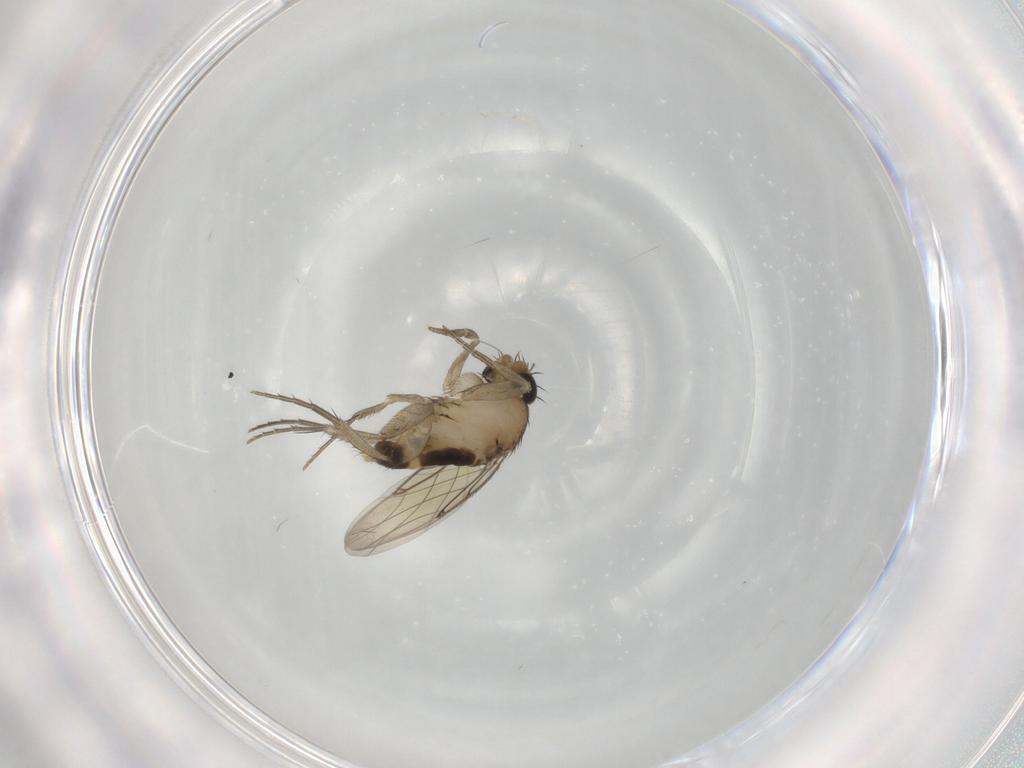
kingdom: Animalia
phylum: Arthropoda
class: Insecta
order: Diptera
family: Phoridae
